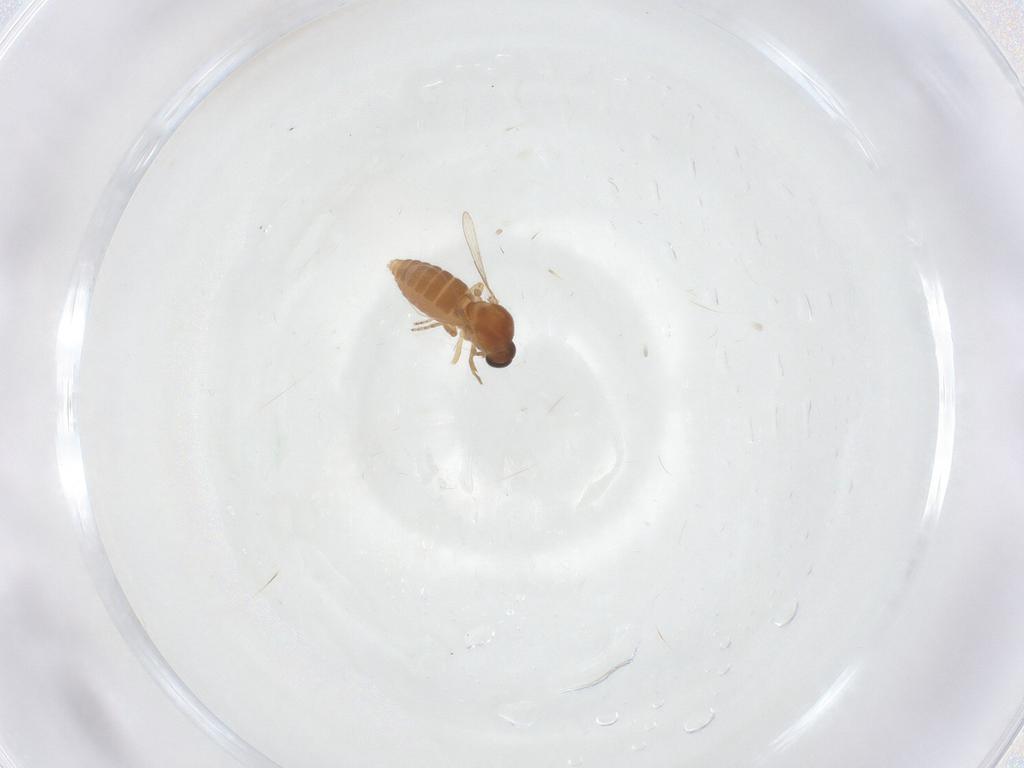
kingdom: Animalia
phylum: Arthropoda
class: Insecta
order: Diptera
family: Ceratopogonidae
